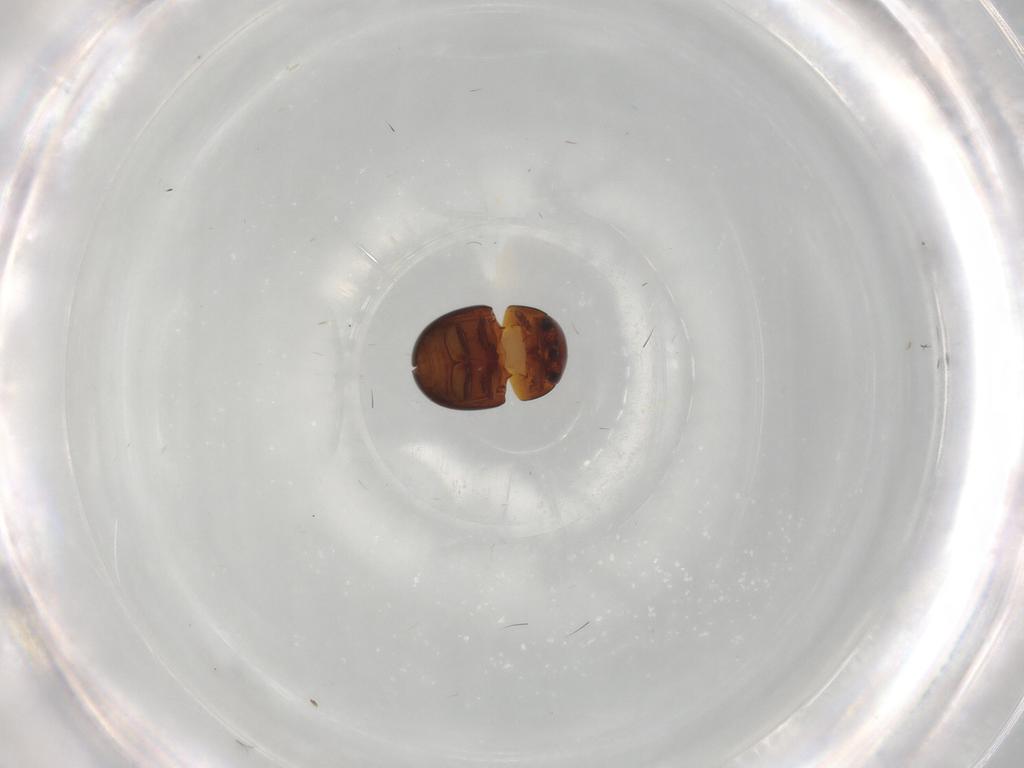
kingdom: Animalia
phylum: Arthropoda
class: Insecta
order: Coleoptera
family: Leiodidae
